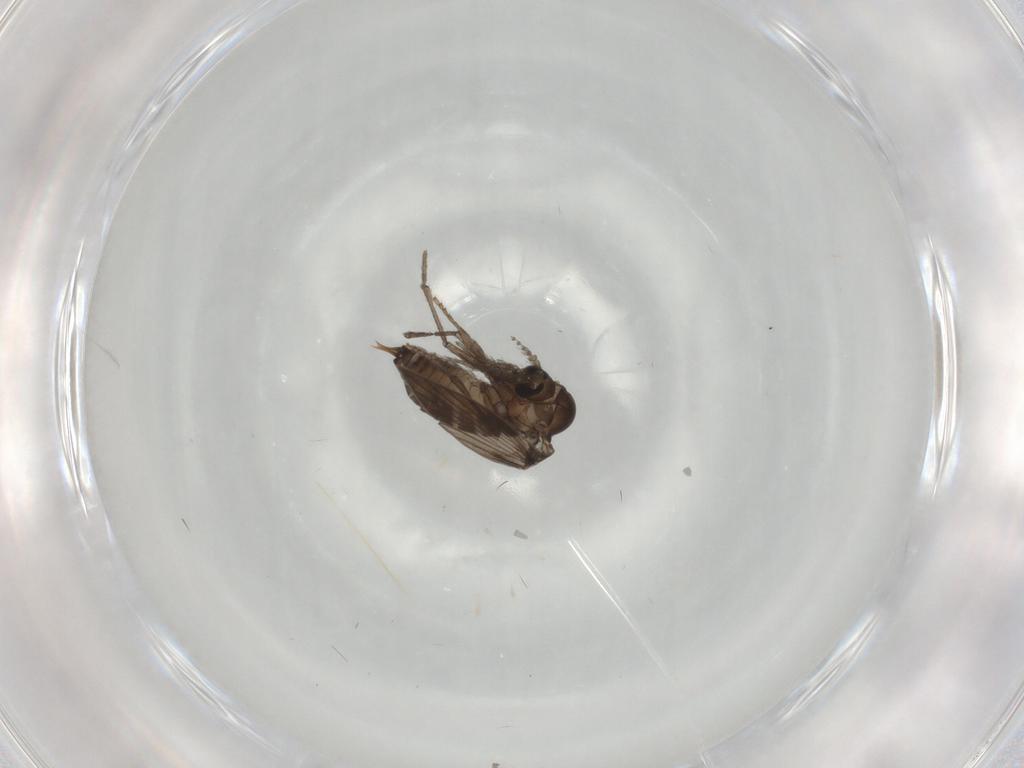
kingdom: Animalia
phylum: Arthropoda
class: Insecta
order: Diptera
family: Psychodidae
